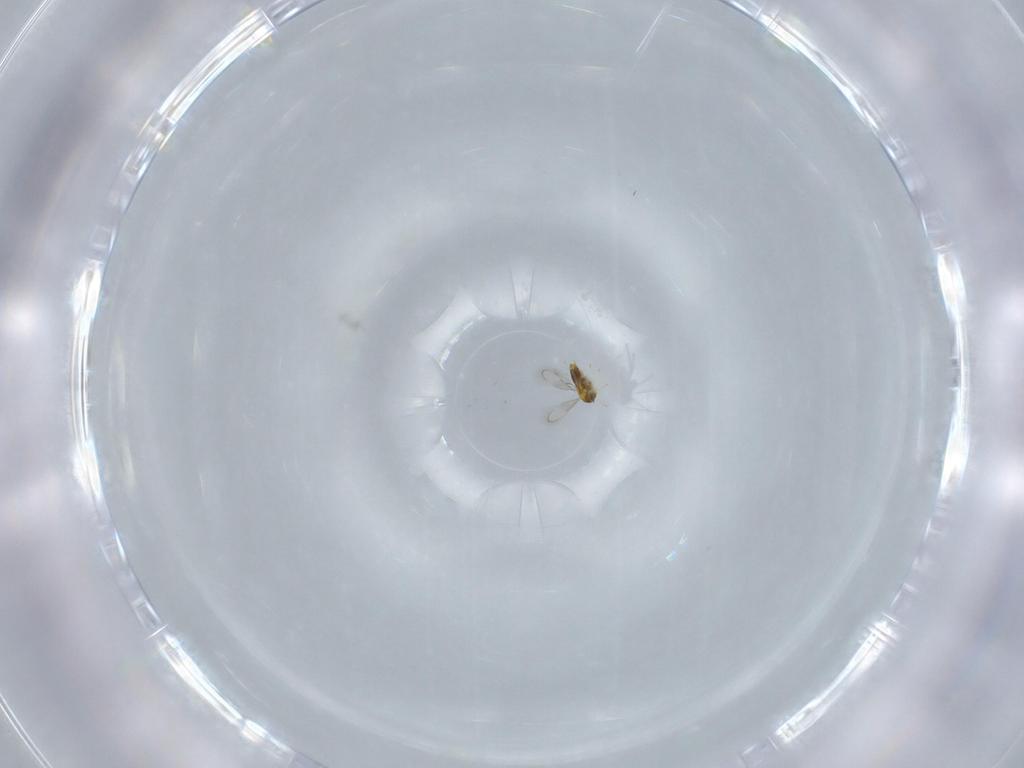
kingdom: Animalia
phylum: Arthropoda
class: Insecta
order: Hymenoptera
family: Aphelinidae
